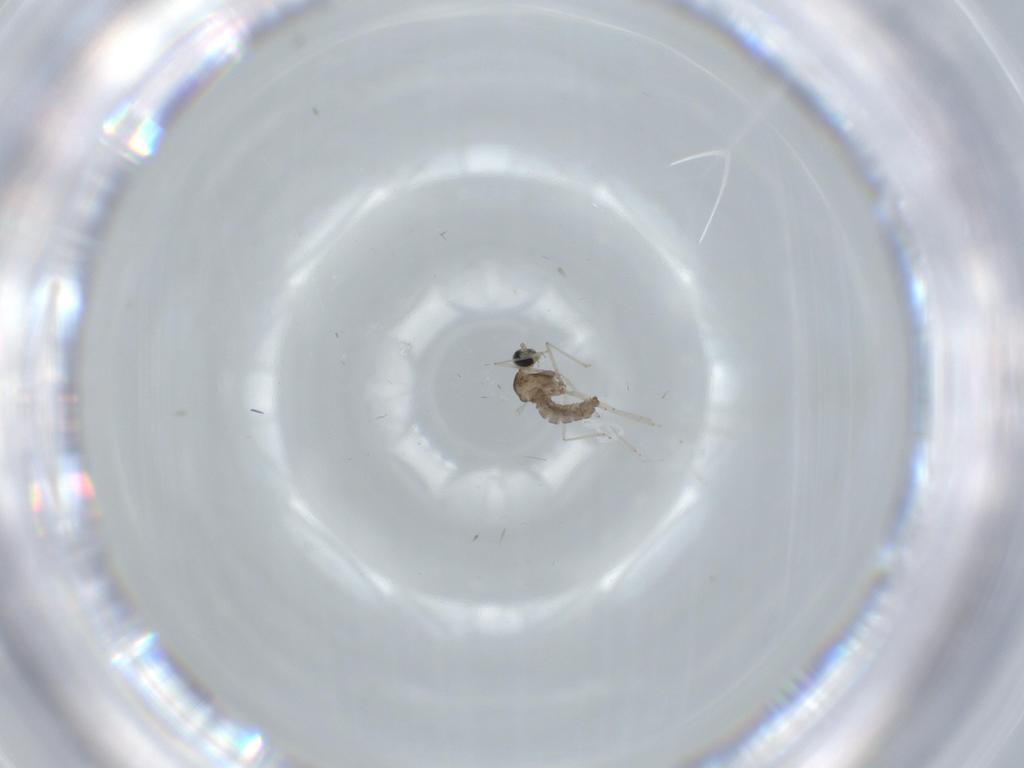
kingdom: Animalia
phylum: Arthropoda
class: Insecta
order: Diptera
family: Cecidomyiidae
